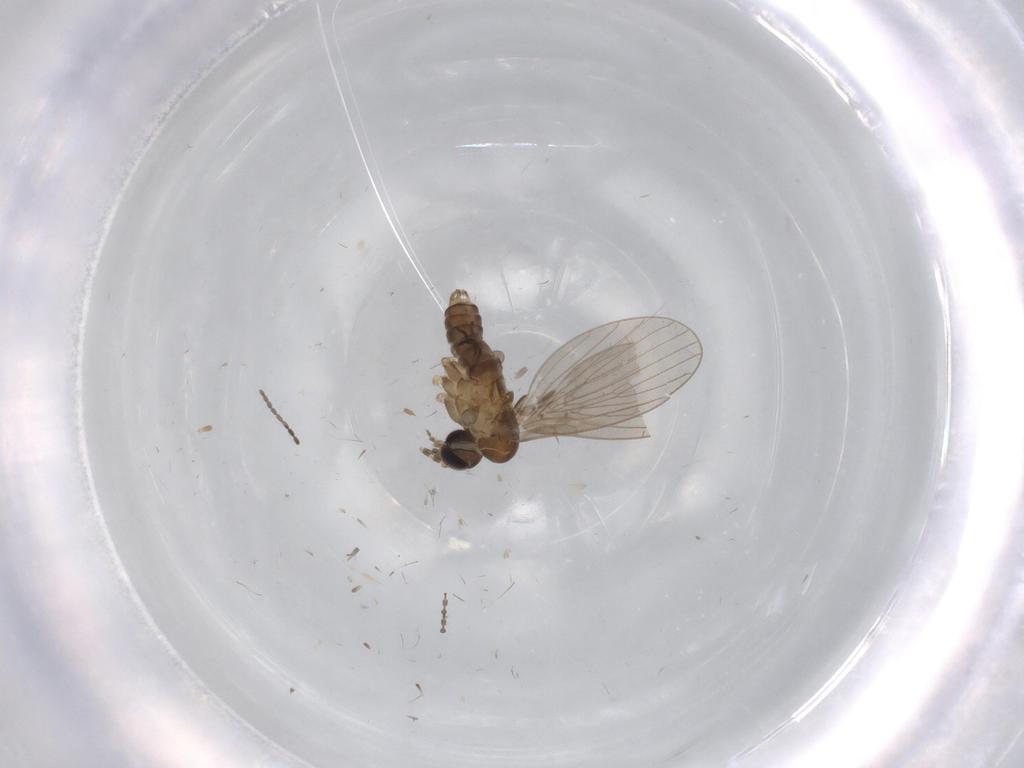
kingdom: Animalia
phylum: Arthropoda
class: Insecta
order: Diptera
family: Phoridae
